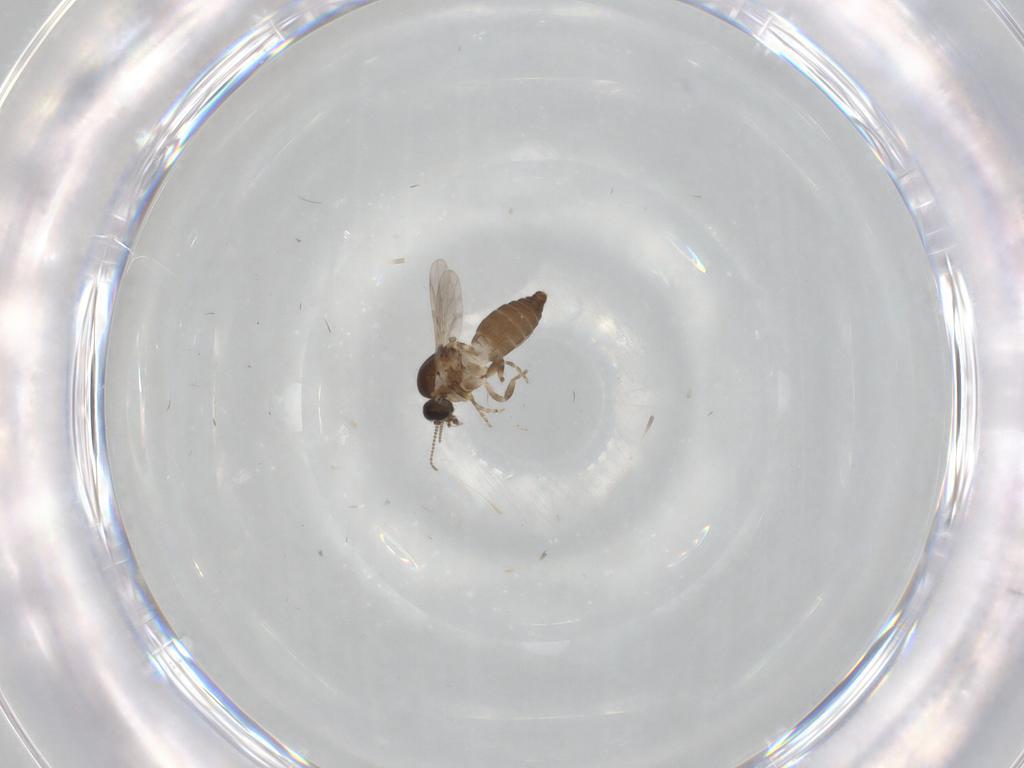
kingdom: Animalia
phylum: Arthropoda
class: Insecta
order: Diptera
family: Ceratopogonidae
